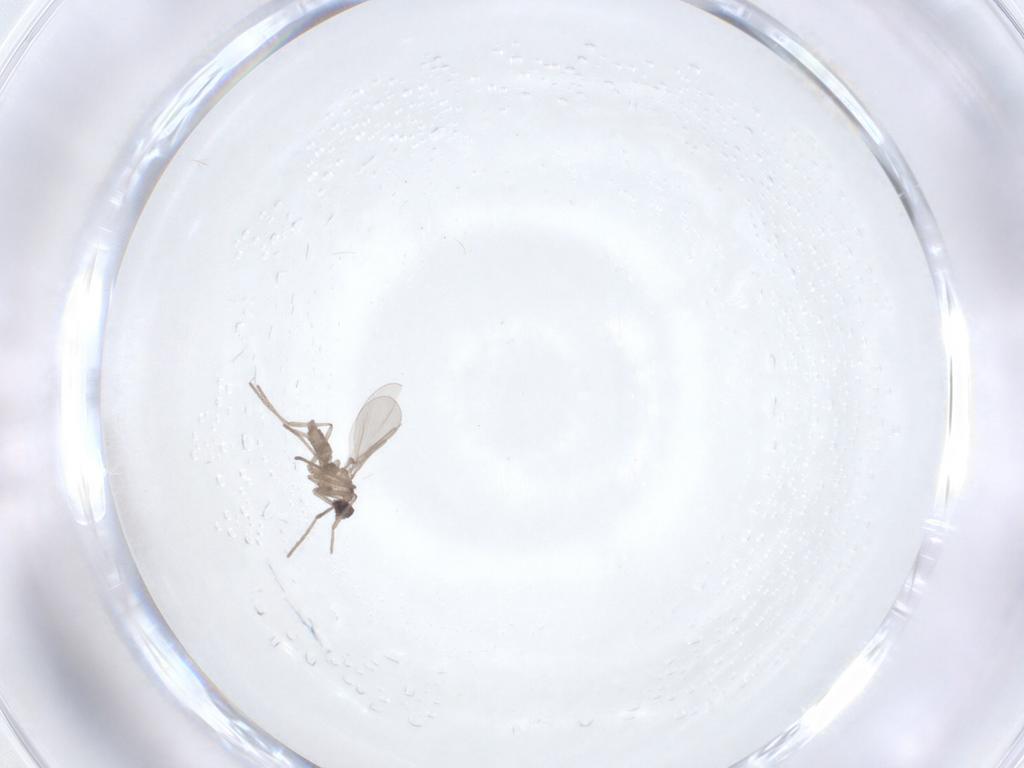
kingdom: Animalia
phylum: Arthropoda
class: Insecta
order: Diptera
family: Cecidomyiidae
